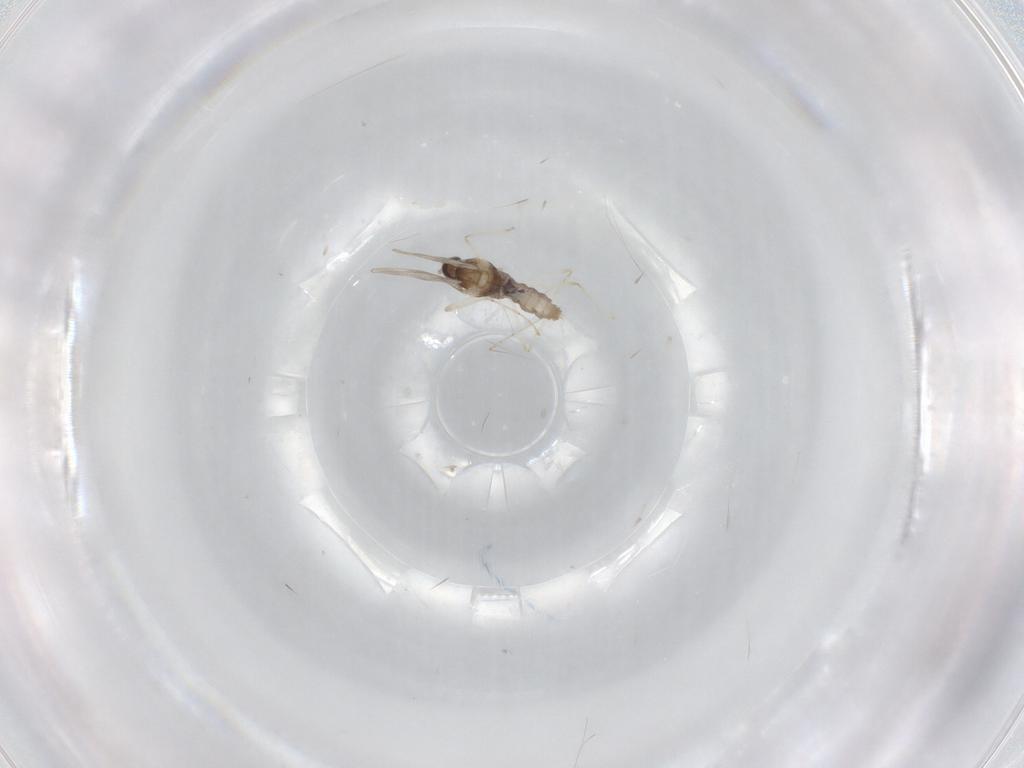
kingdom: Animalia
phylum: Arthropoda
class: Insecta
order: Diptera
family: Cecidomyiidae
